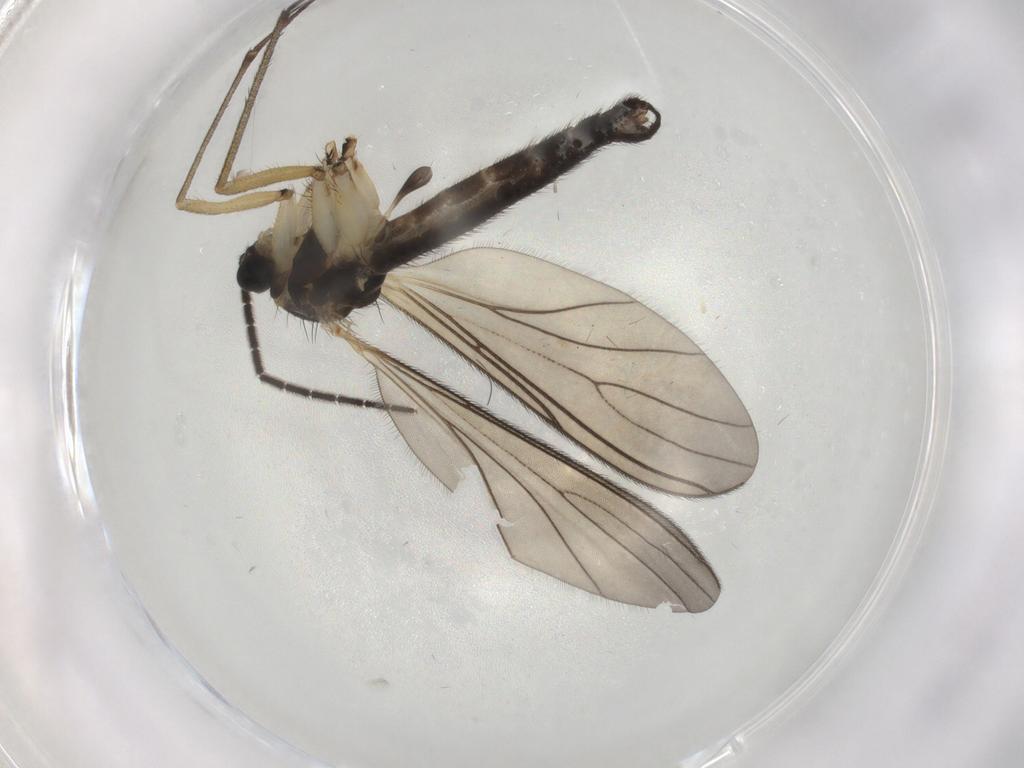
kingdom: Animalia
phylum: Arthropoda
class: Insecta
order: Diptera
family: Sciaridae
